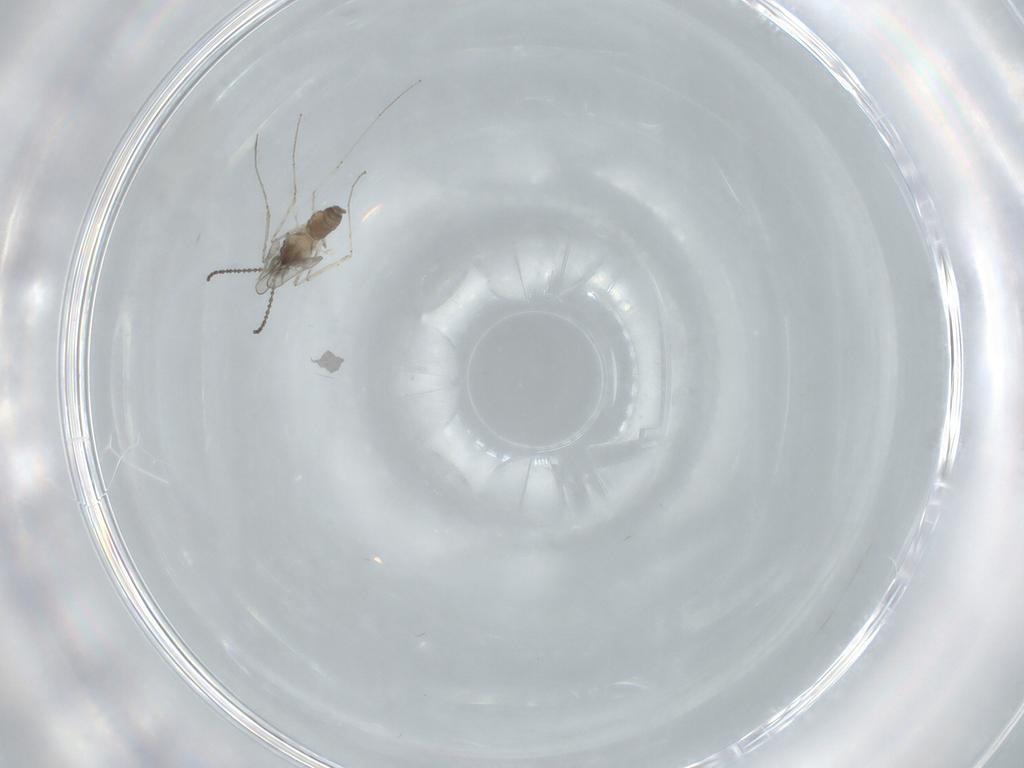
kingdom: Animalia
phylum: Arthropoda
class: Insecta
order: Diptera
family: Cecidomyiidae
